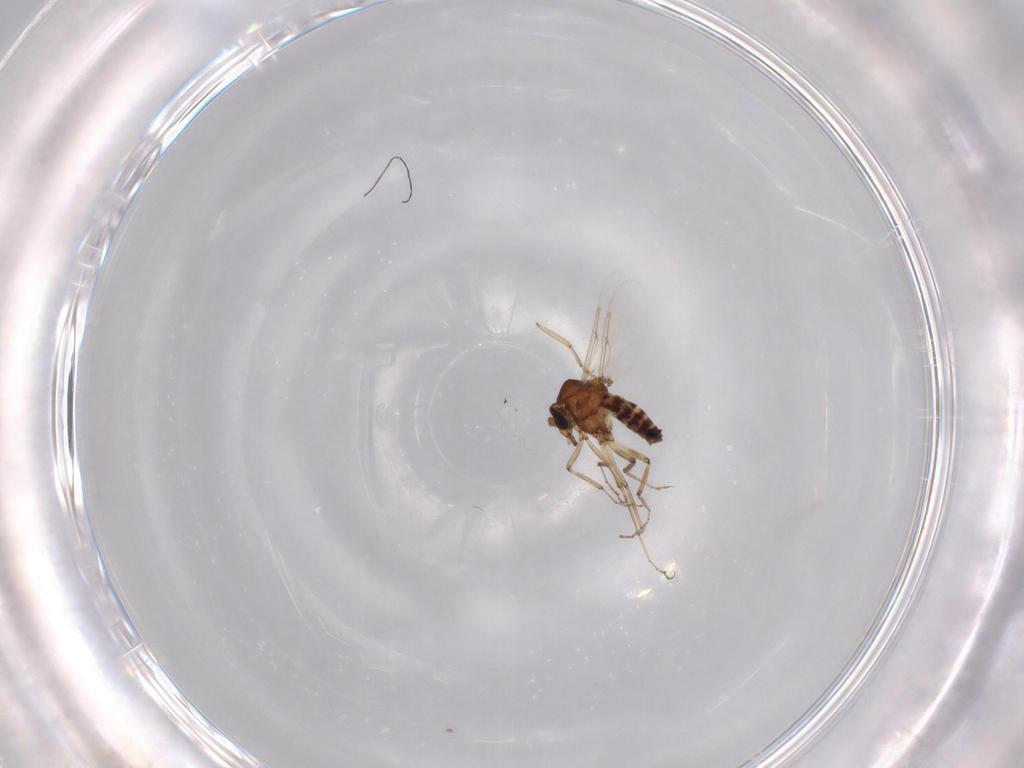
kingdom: Animalia
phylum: Arthropoda
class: Insecta
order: Diptera
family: Ceratopogonidae
